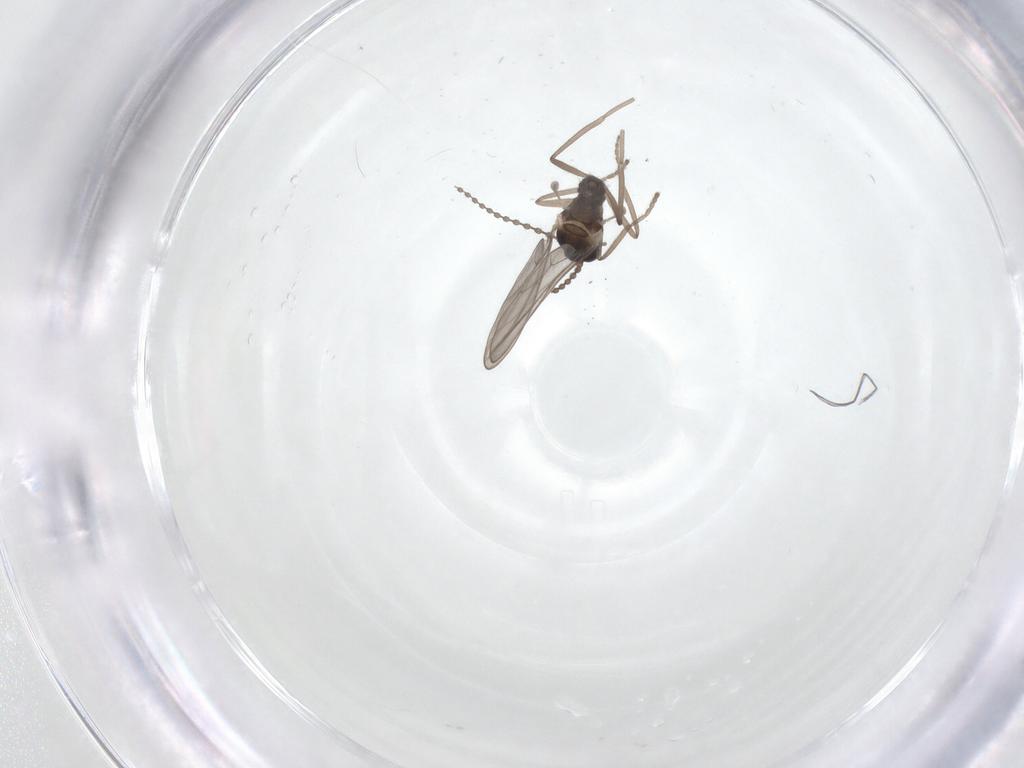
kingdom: Animalia
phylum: Arthropoda
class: Insecta
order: Diptera
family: Cecidomyiidae
